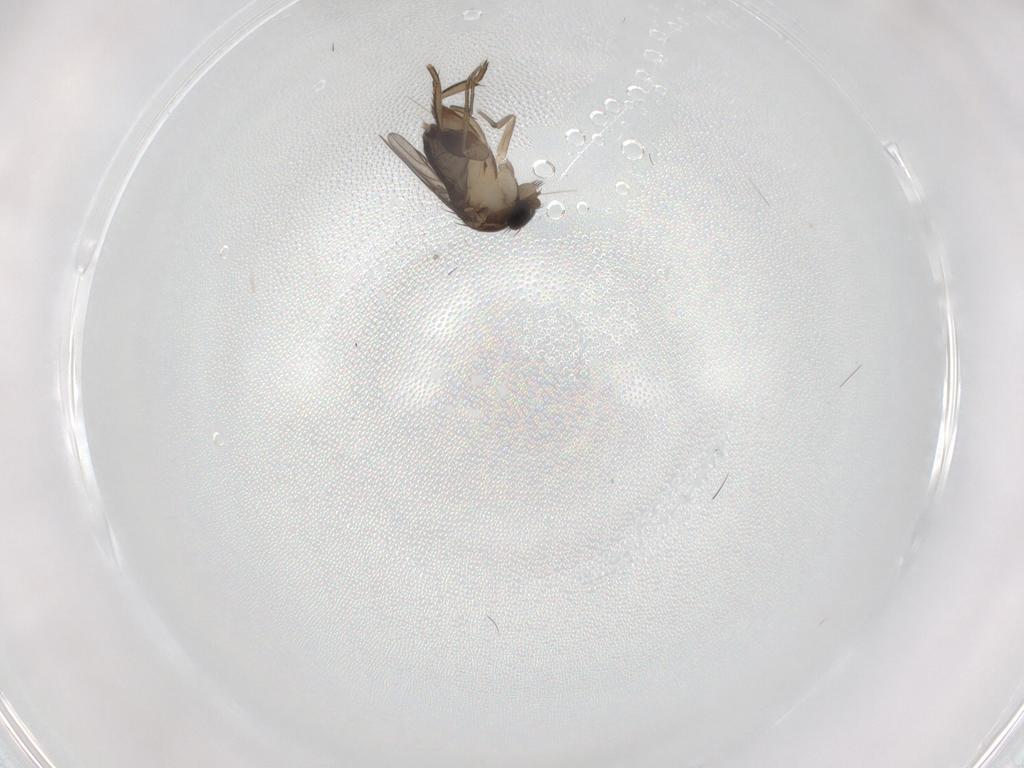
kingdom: Animalia
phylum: Arthropoda
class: Insecta
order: Diptera
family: Phoridae
